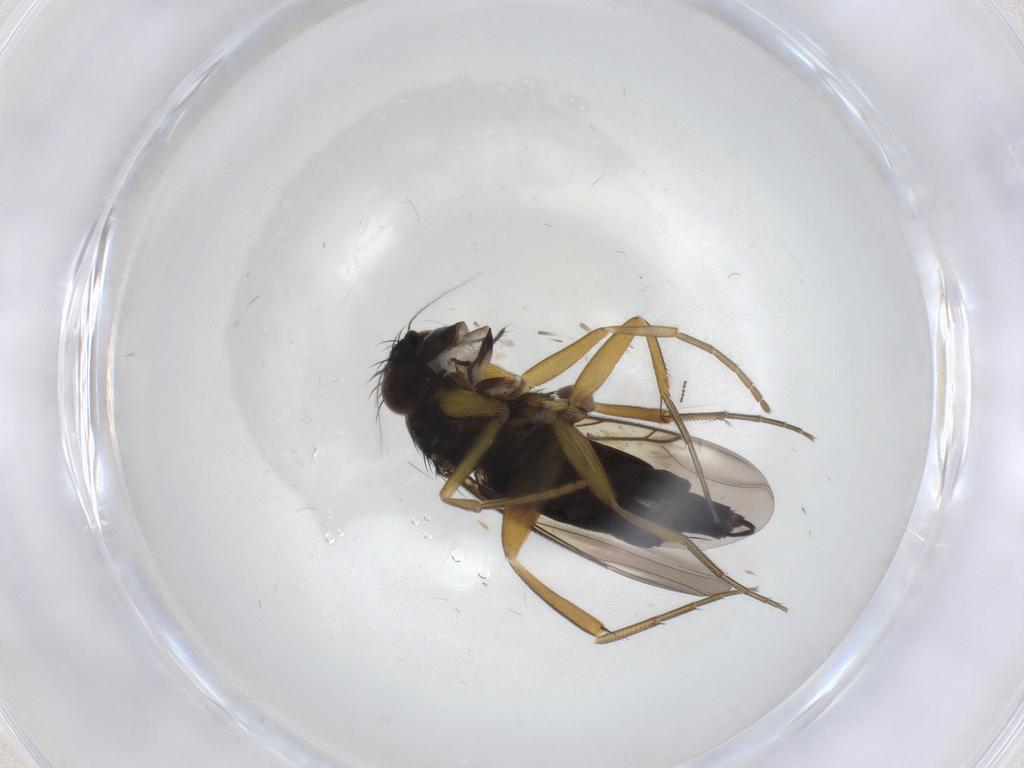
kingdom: Animalia
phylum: Arthropoda
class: Insecta
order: Diptera
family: Cecidomyiidae
